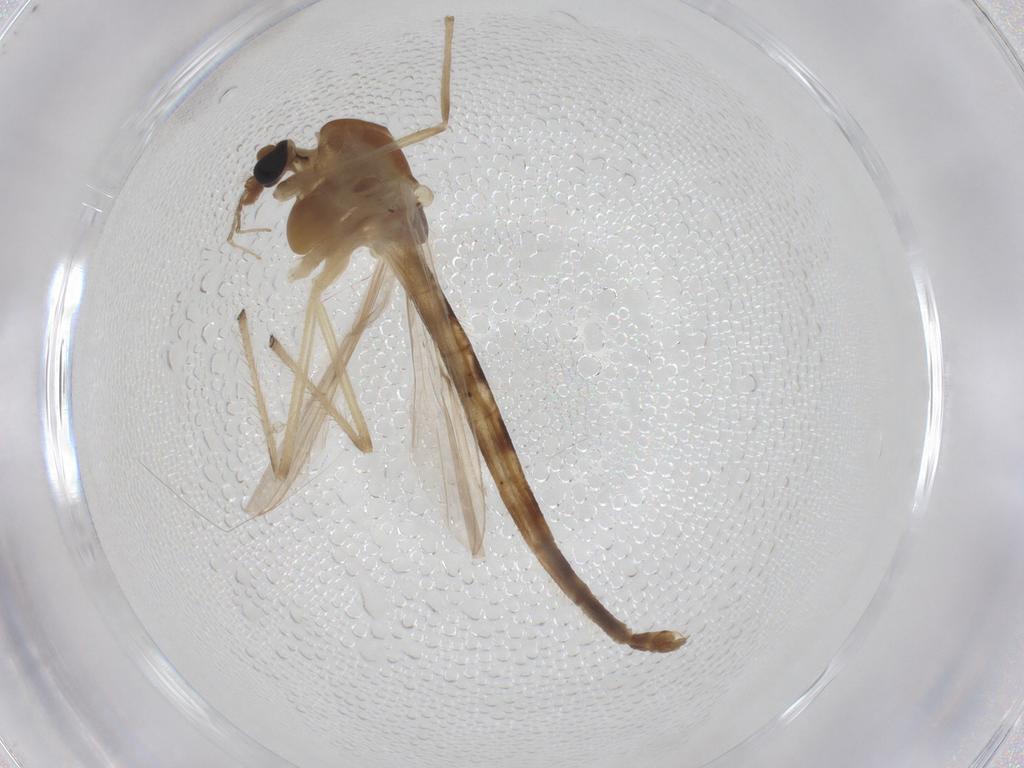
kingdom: Animalia
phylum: Arthropoda
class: Insecta
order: Diptera
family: Chironomidae
